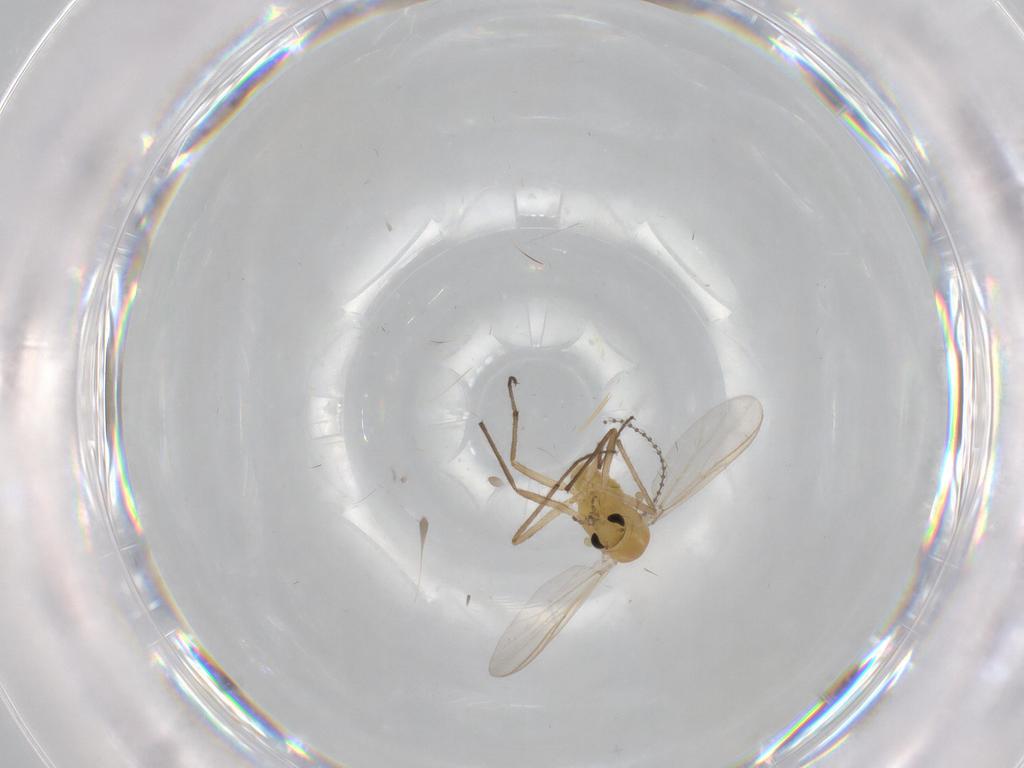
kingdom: Animalia
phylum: Arthropoda
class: Insecta
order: Diptera
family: Chironomidae
